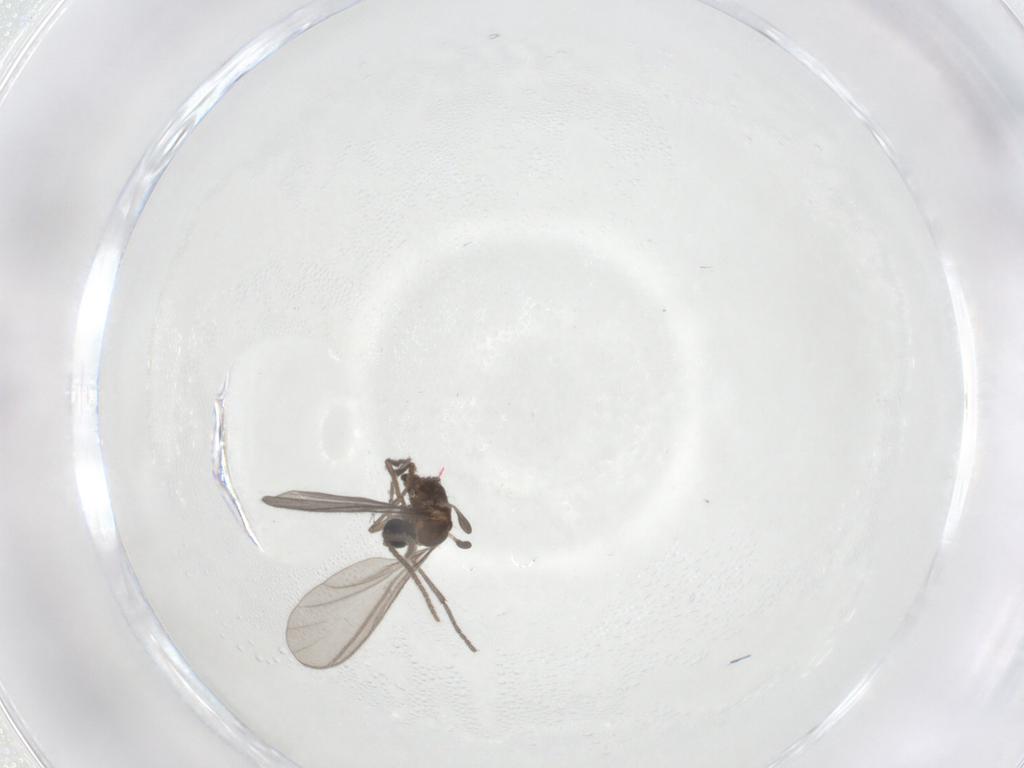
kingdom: Animalia
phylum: Arthropoda
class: Insecta
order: Diptera
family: Sciaridae
